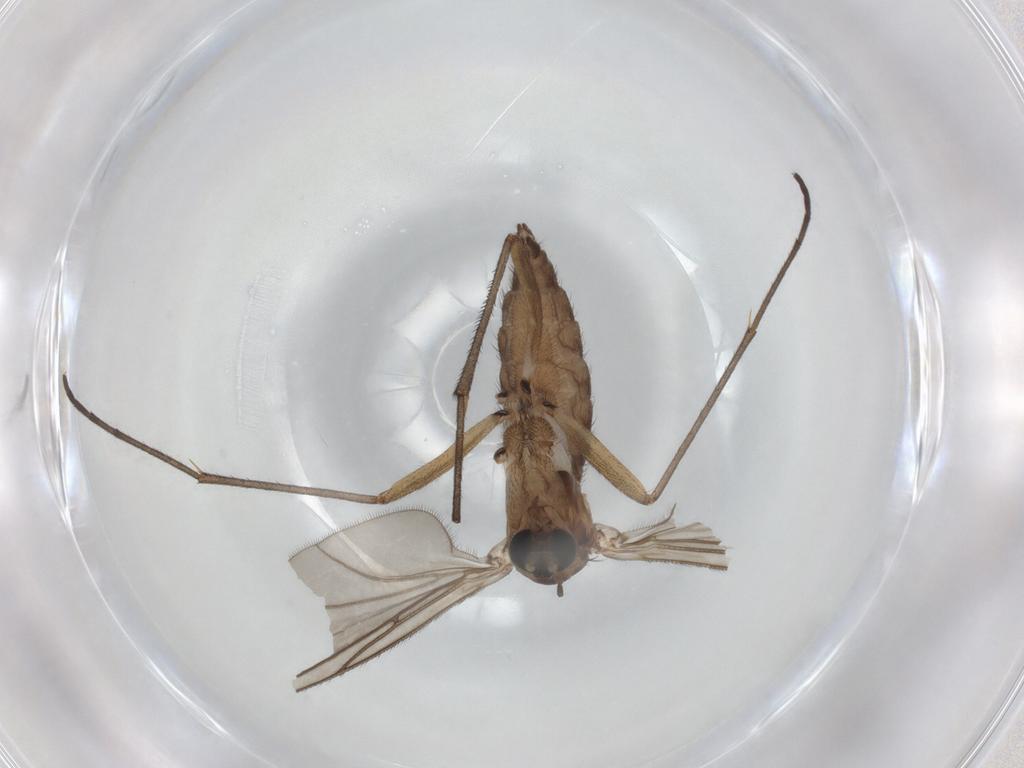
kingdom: Animalia
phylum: Arthropoda
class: Insecta
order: Diptera
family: Sciaridae
